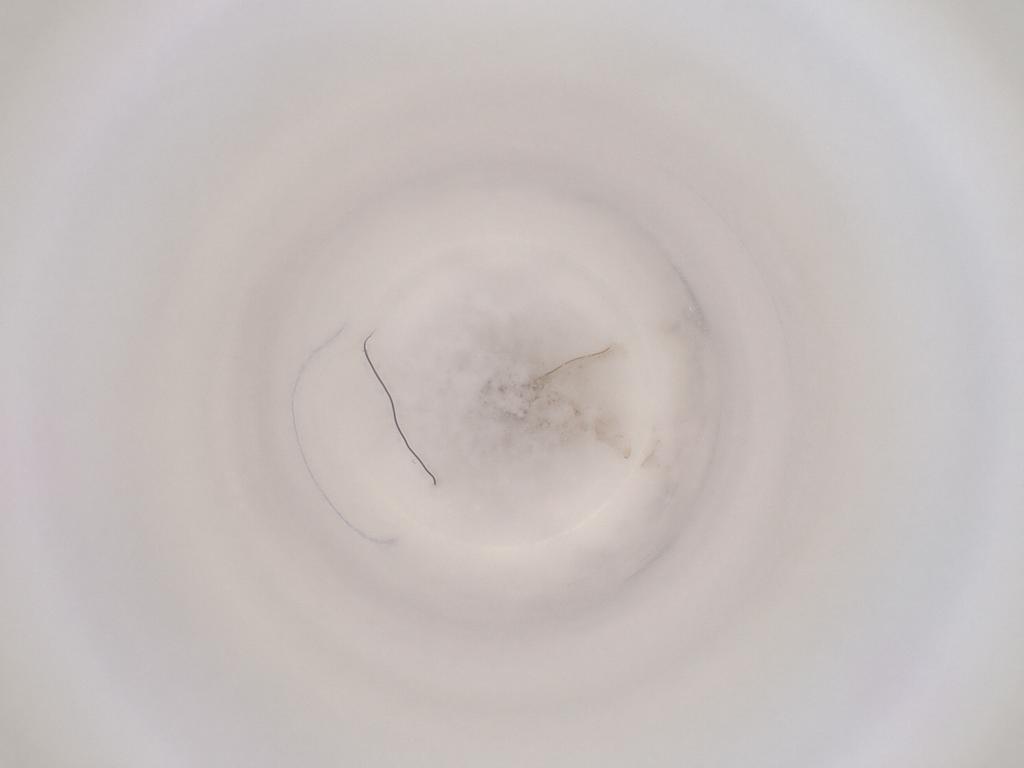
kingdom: Animalia
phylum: Arthropoda
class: Insecta
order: Diptera
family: Cecidomyiidae
